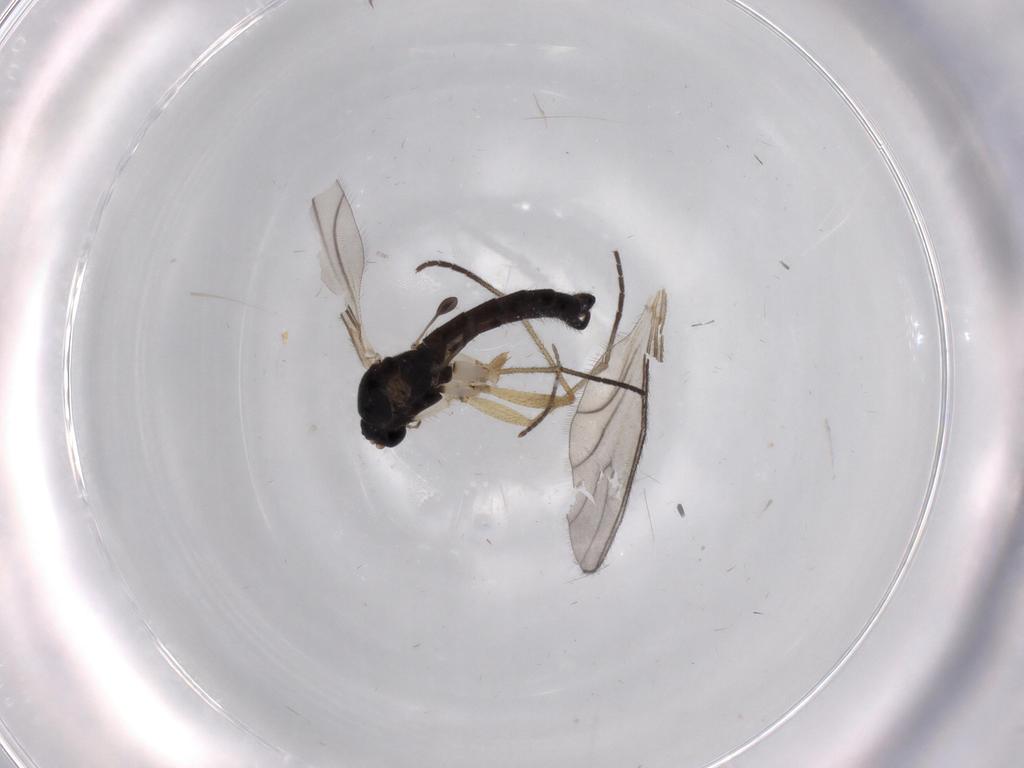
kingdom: Animalia
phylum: Arthropoda
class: Insecta
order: Diptera
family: Sciaridae
